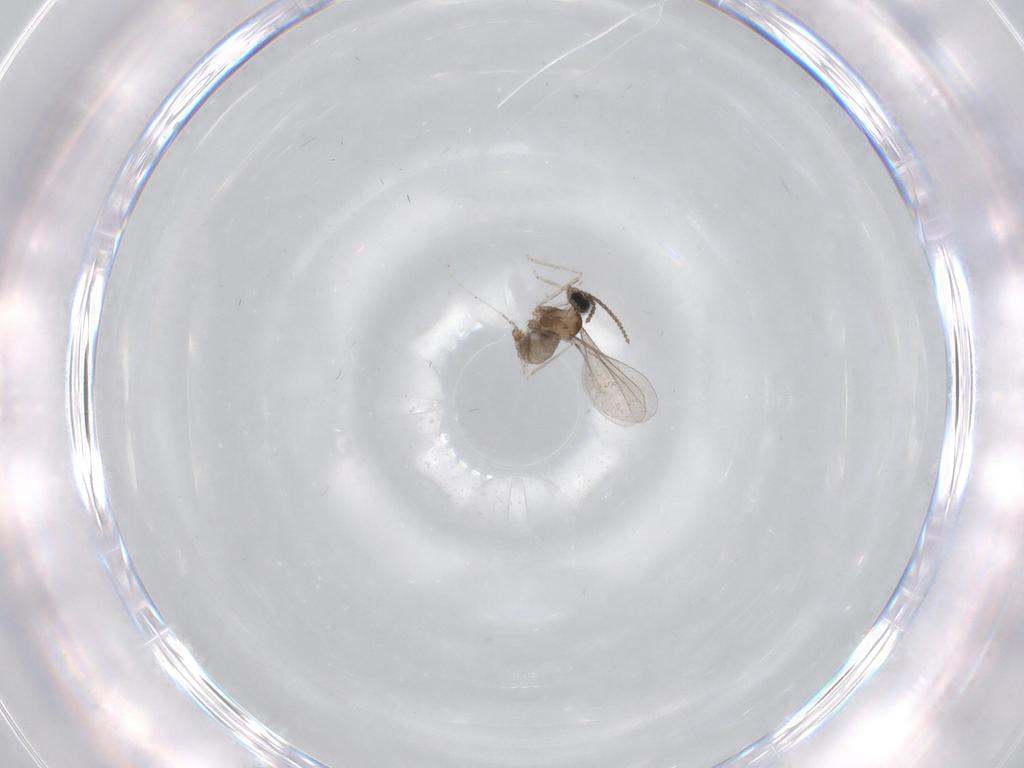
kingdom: Animalia
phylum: Arthropoda
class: Insecta
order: Diptera
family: Cecidomyiidae
